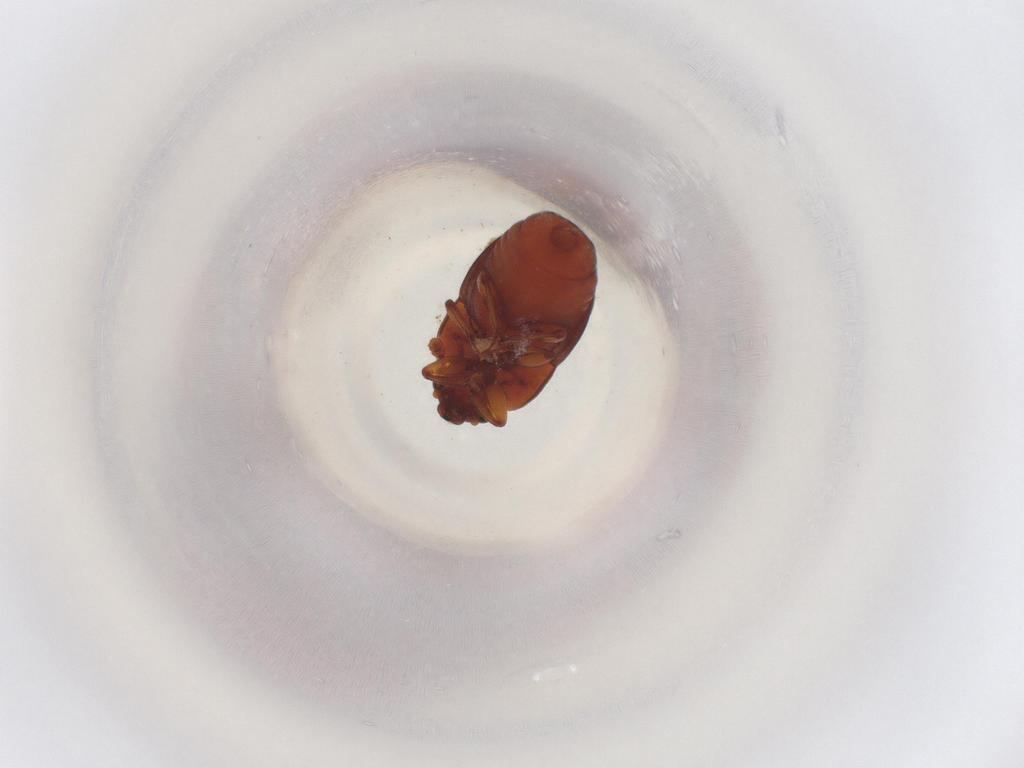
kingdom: Animalia
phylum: Arthropoda
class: Insecta
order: Coleoptera
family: Nitidulidae
